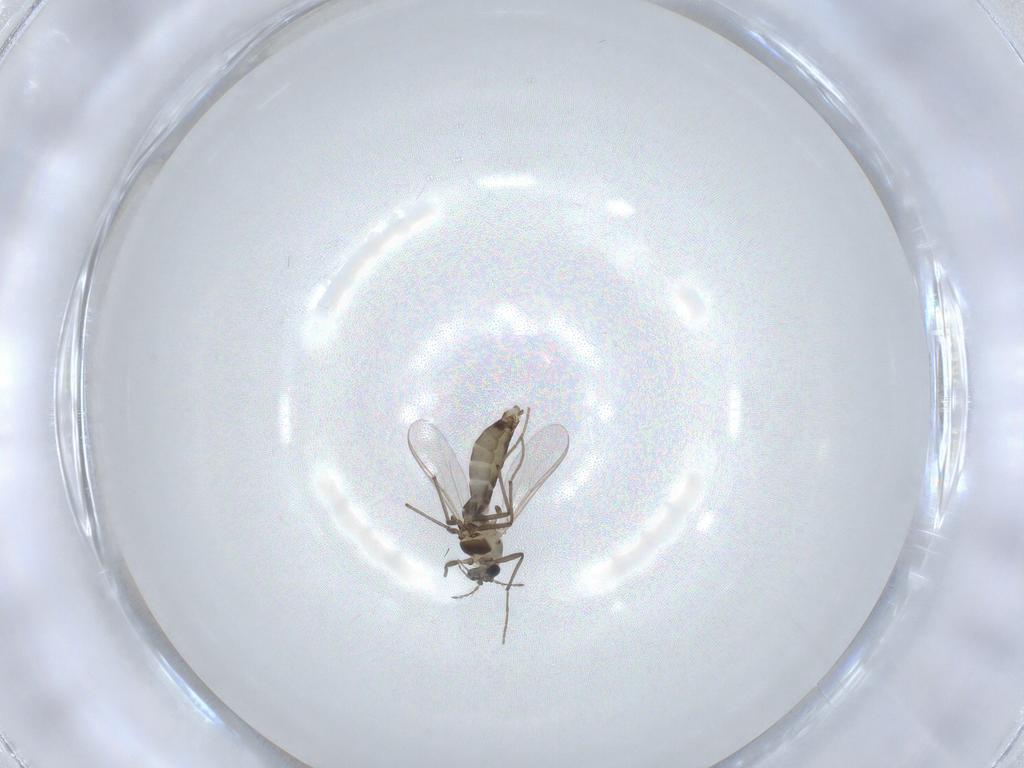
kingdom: Animalia
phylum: Arthropoda
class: Insecta
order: Diptera
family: Chironomidae
